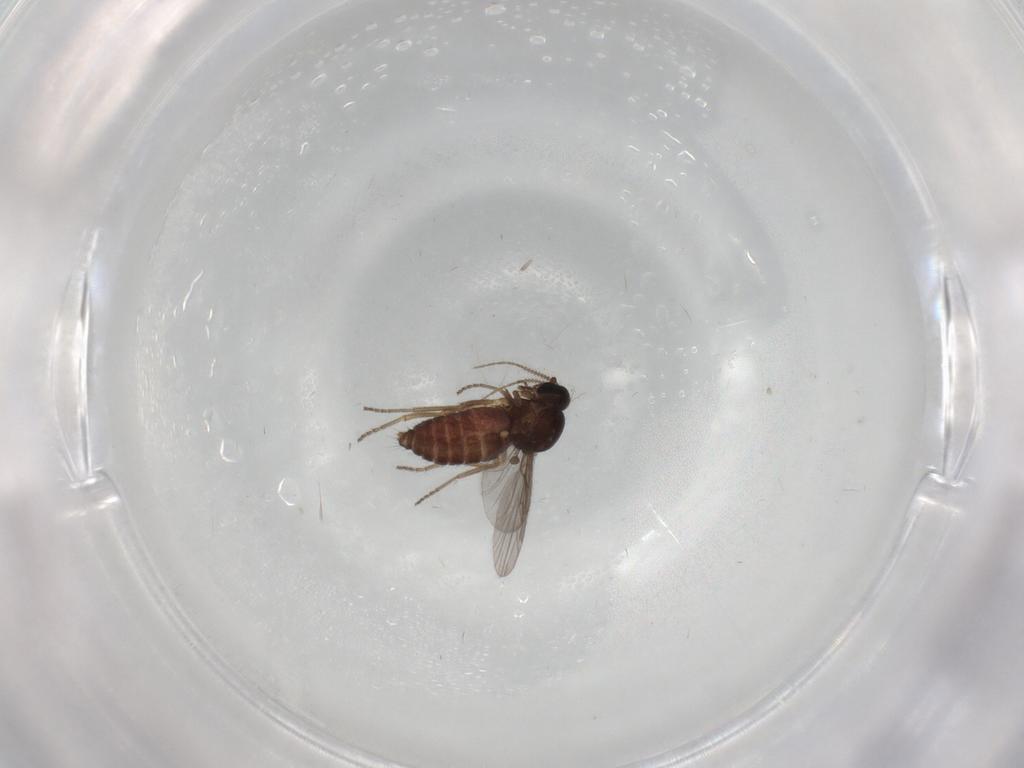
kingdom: Animalia
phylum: Arthropoda
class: Insecta
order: Diptera
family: Ceratopogonidae
